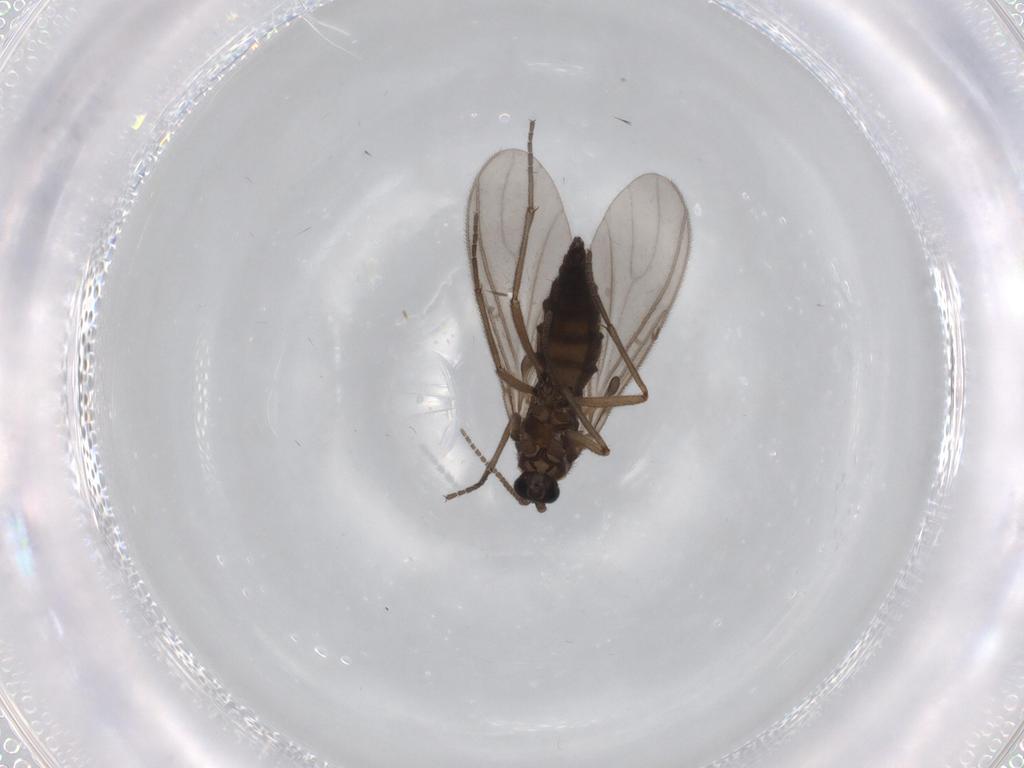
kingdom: Animalia
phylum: Arthropoda
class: Insecta
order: Diptera
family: Sciaridae
